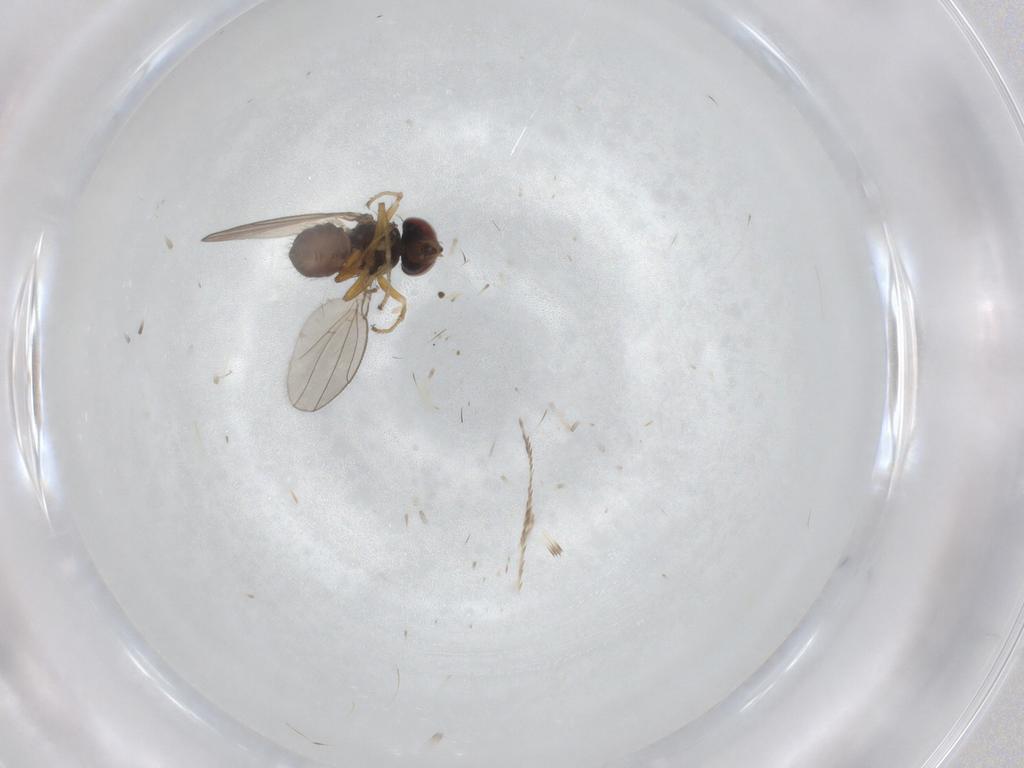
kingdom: Animalia
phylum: Arthropoda
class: Insecta
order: Diptera
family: Ephydridae
